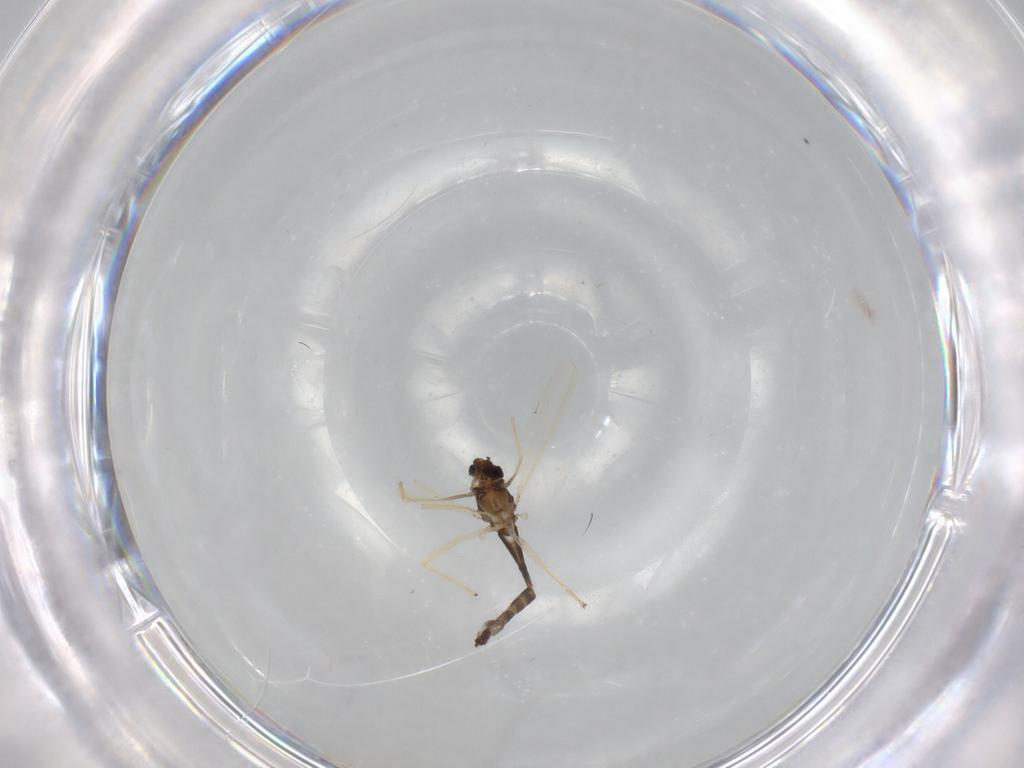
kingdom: Animalia
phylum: Arthropoda
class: Insecta
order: Diptera
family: Chironomidae
